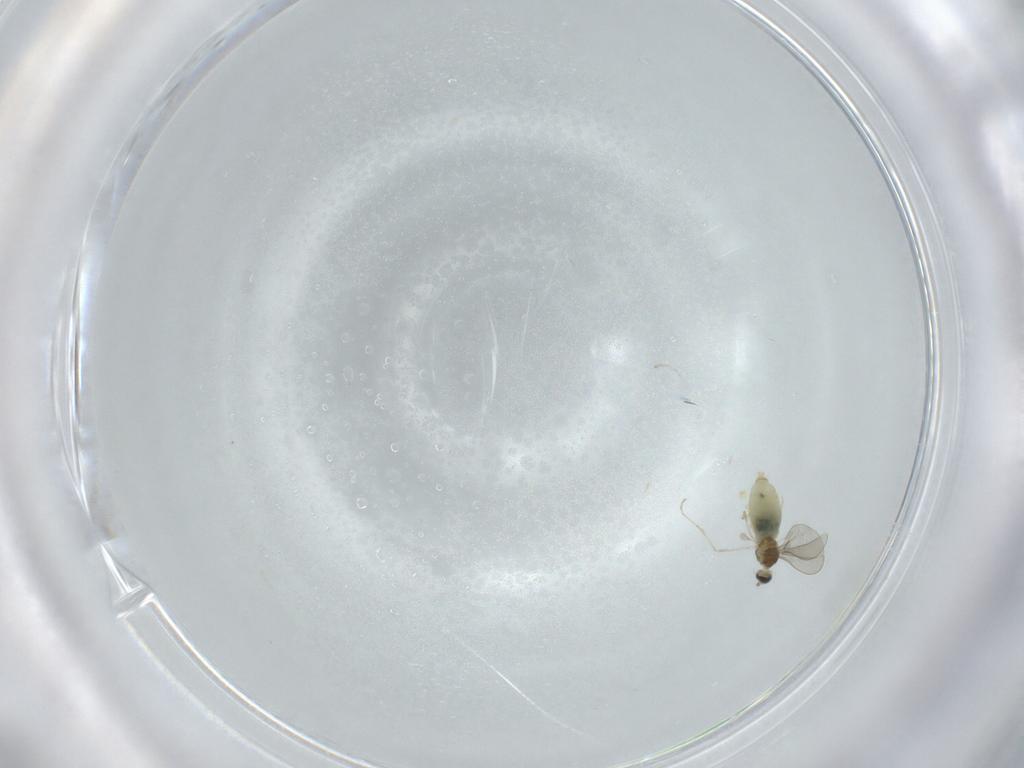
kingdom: Animalia
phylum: Arthropoda
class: Insecta
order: Diptera
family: Cecidomyiidae
